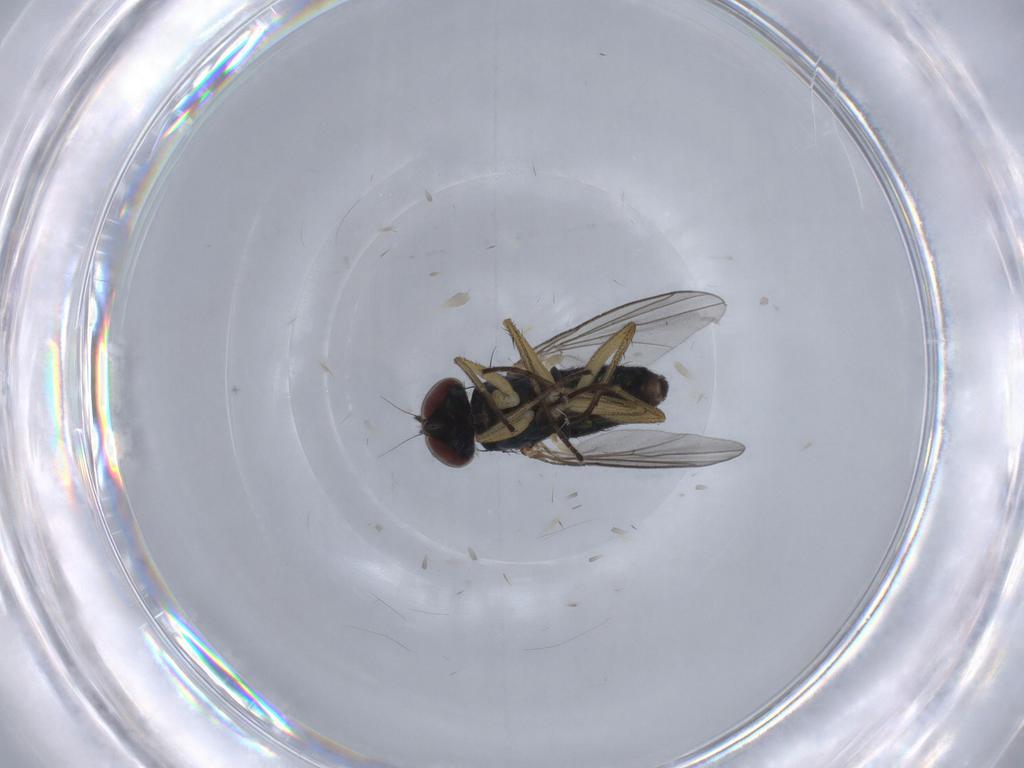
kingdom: Animalia
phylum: Arthropoda
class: Insecta
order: Diptera
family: Dolichopodidae
